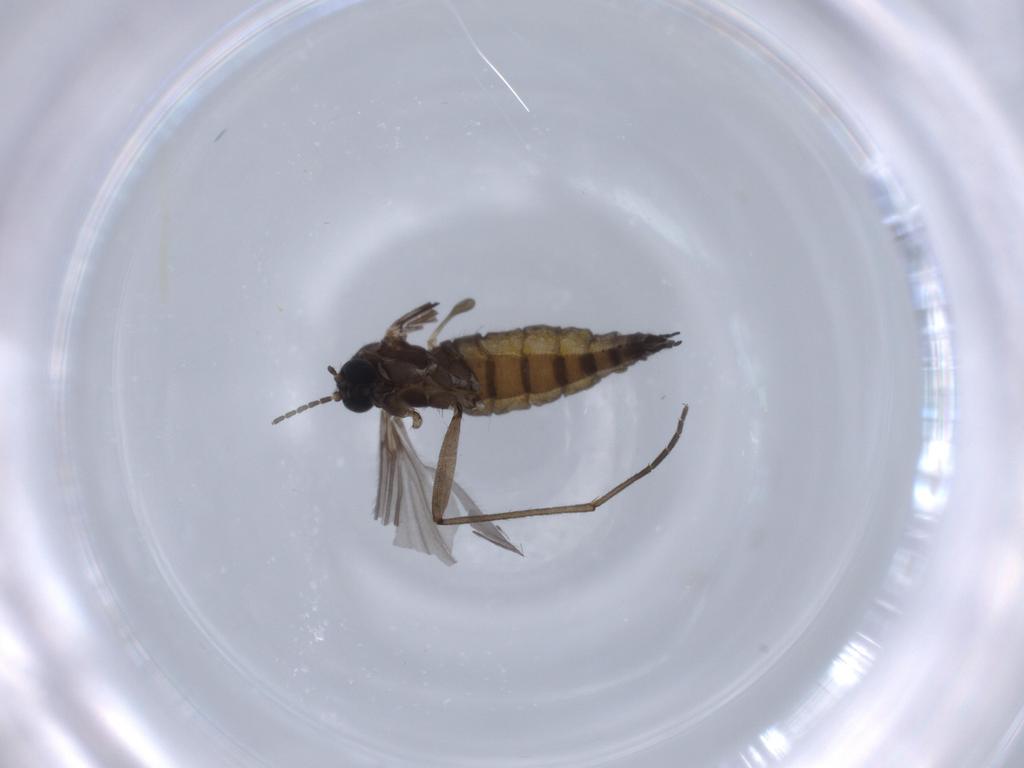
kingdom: Animalia
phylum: Arthropoda
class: Insecta
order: Diptera
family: Sciaridae
